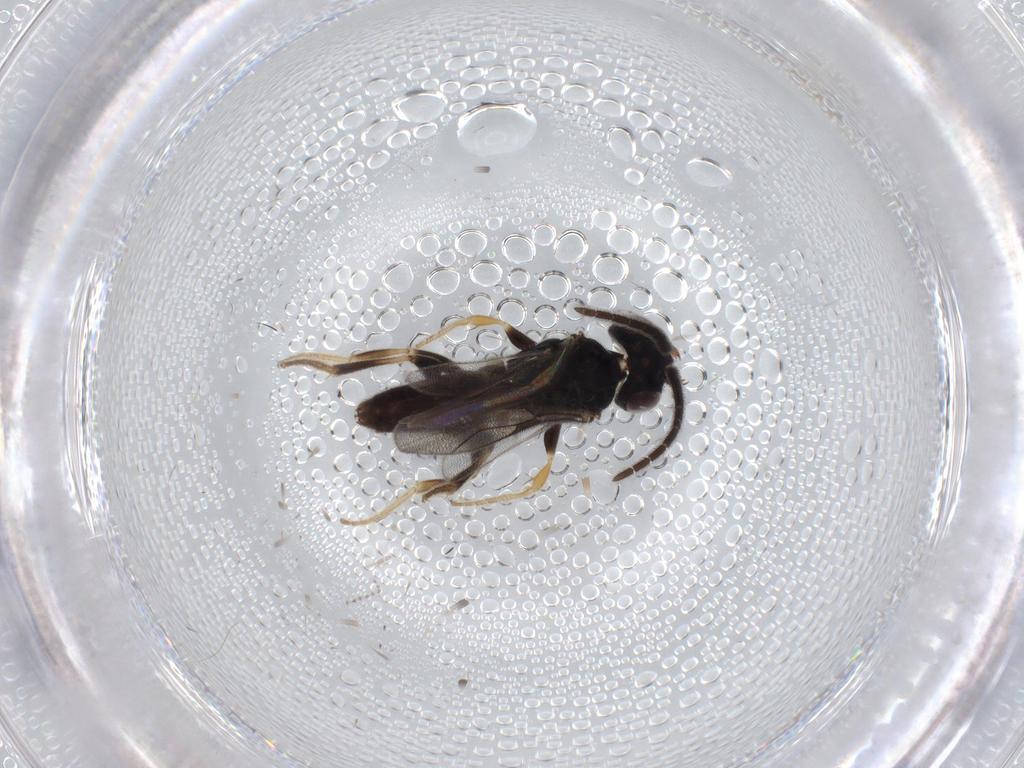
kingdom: Animalia
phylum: Arthropoda
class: Insecta
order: Hymenoptera
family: Dryinidae
